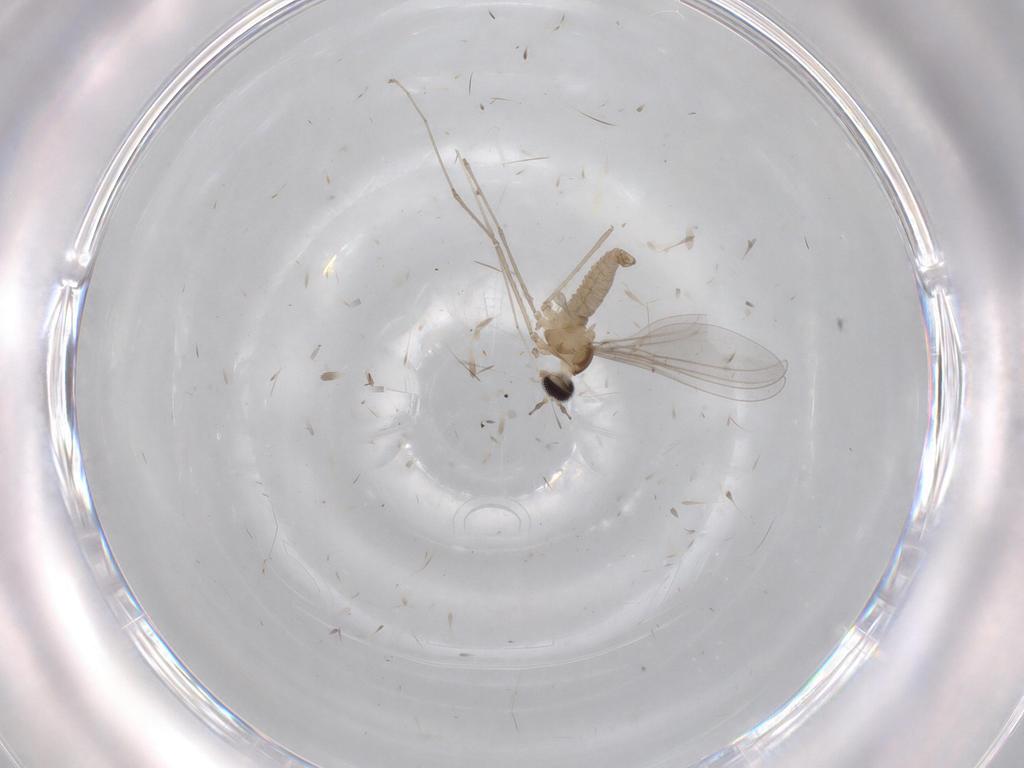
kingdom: Animalia
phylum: Arthropoda
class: Insecta
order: Diptera
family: Cecidomyiidae
